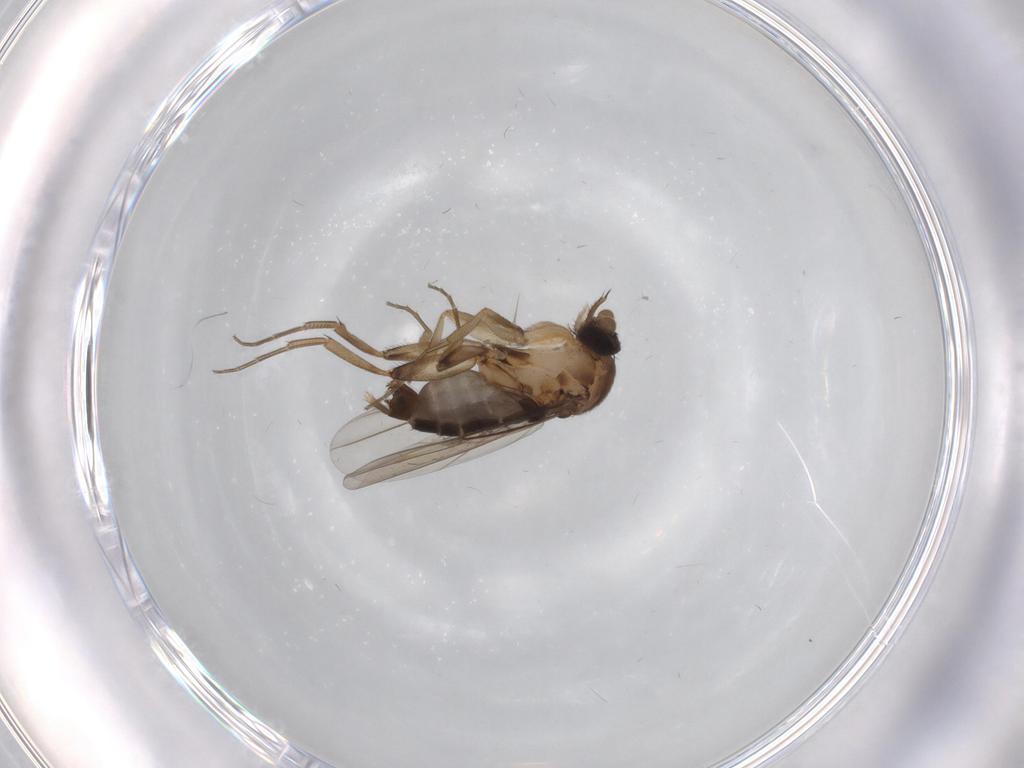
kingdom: Animalia
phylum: Arthropoda
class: Insecta
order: Diptera
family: Phoridae
